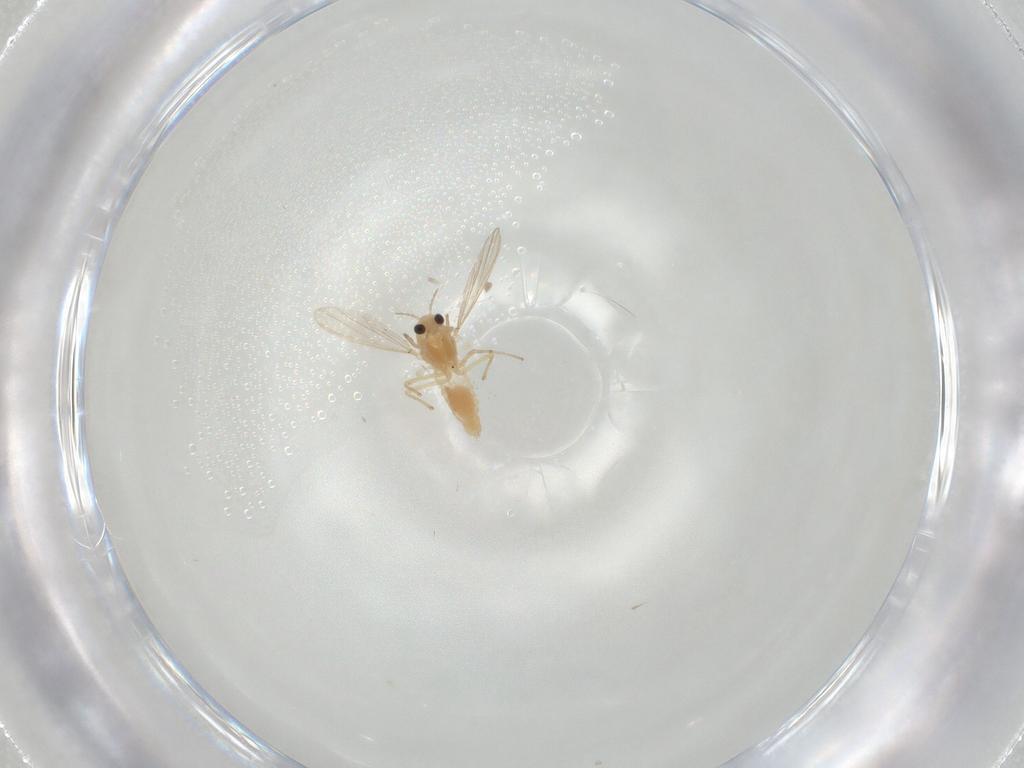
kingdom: Animalia
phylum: Arthropoda
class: Insecta
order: Diptera
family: Chironomidae
